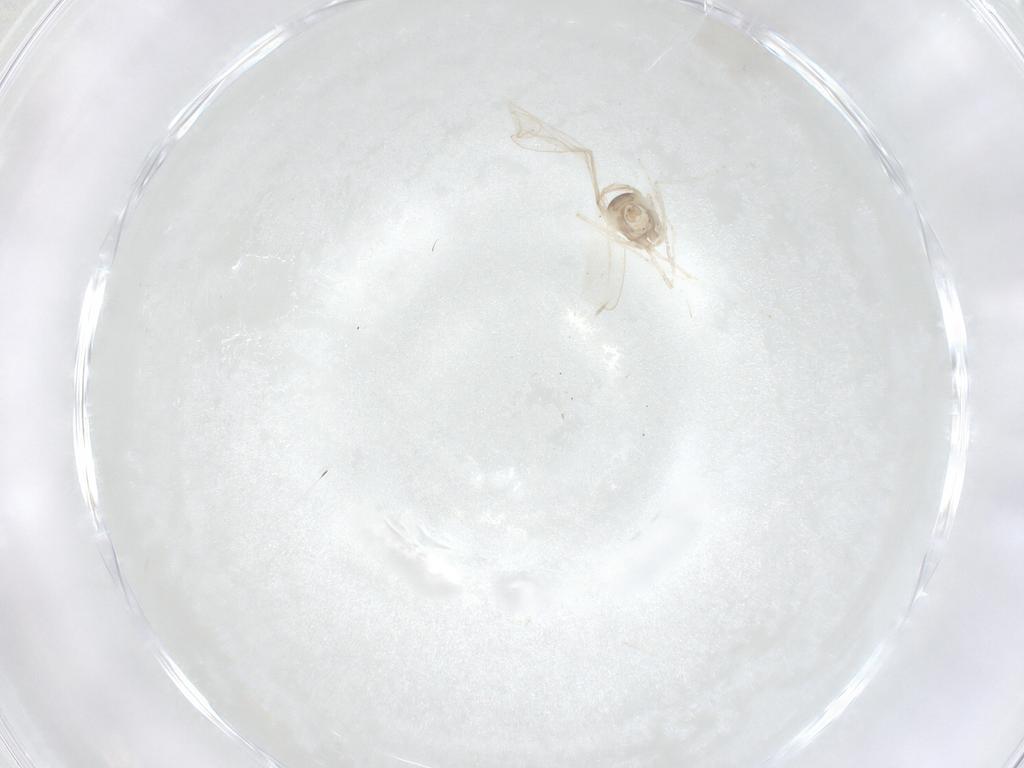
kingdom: Animalia
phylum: Arthropoda
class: Insecta
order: Diptera
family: Cecidomyiidae
